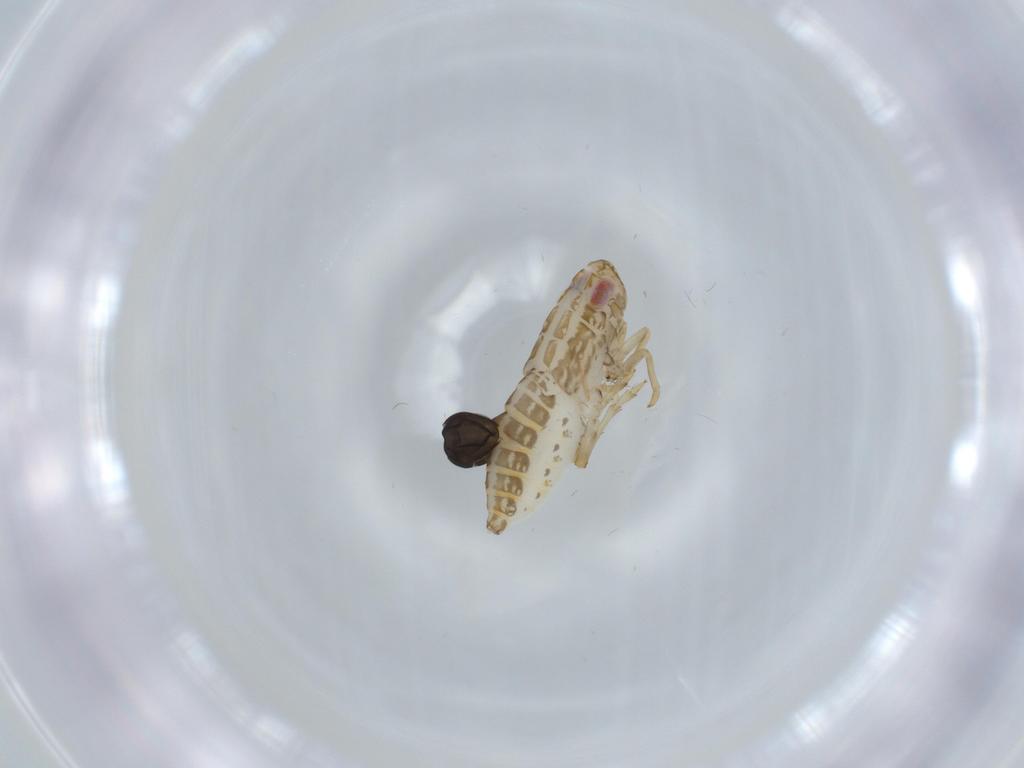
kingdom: Animalia
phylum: Arthropoda
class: Insecta
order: Hemiptera
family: Delphacidae
